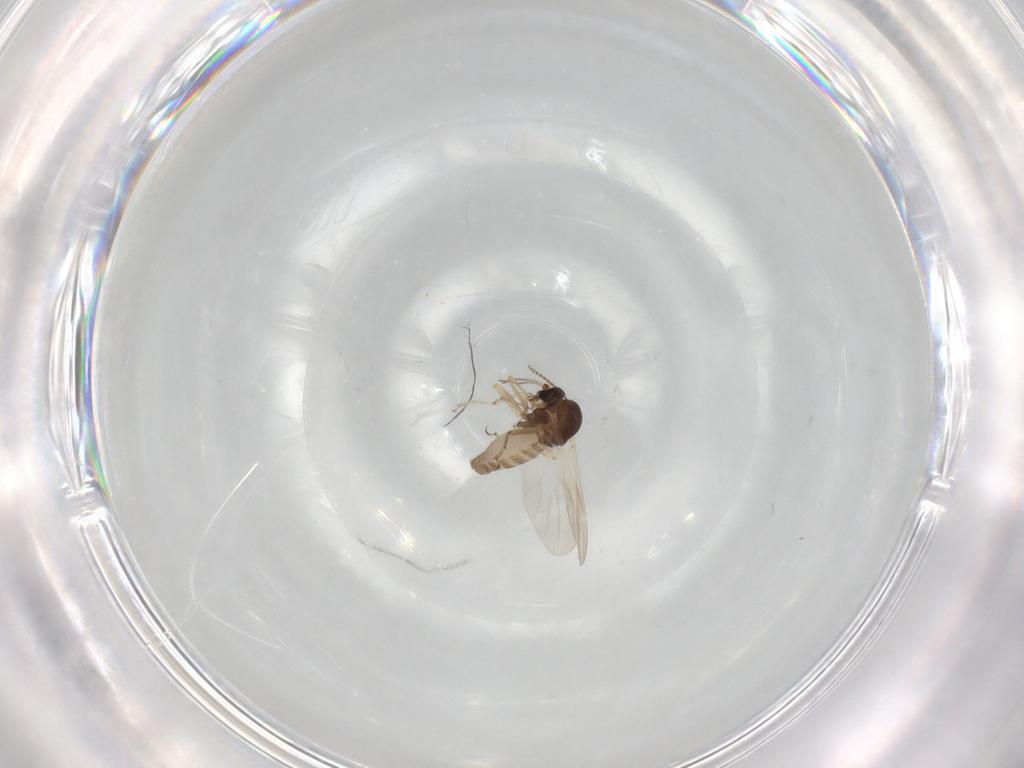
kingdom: Animalia
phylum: Arthropoda
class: Insecta
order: Diptera
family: Ceratopogonidae
